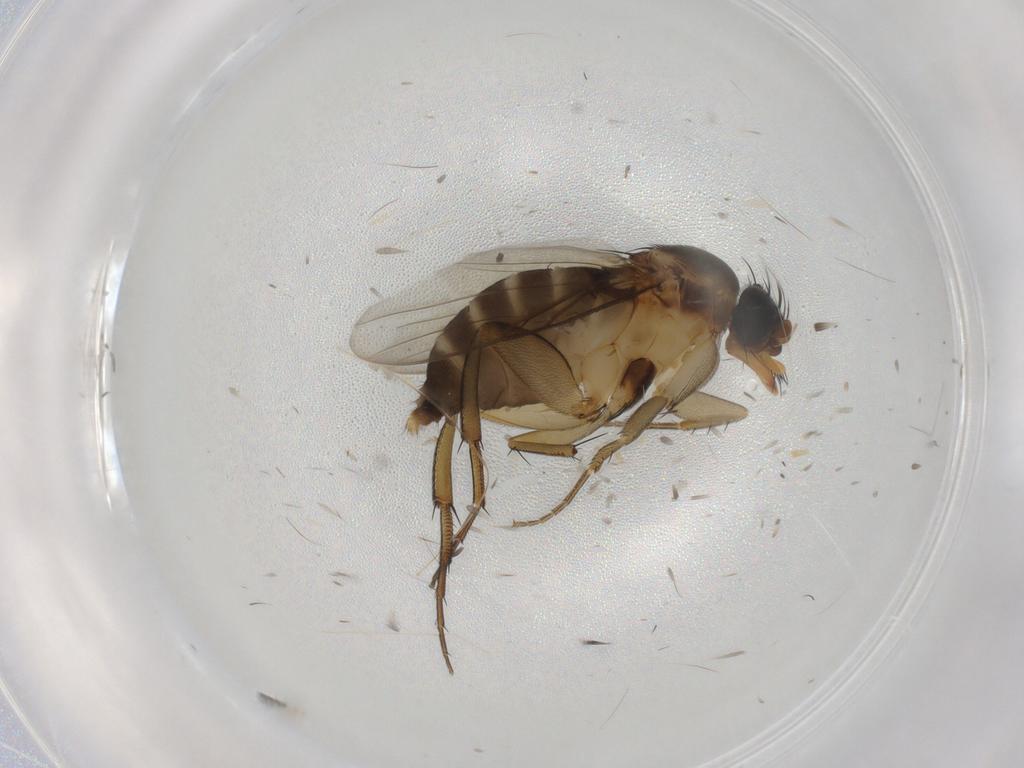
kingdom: Animalia
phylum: Arthropoda
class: Insecta
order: Diptera
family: Phoridae
